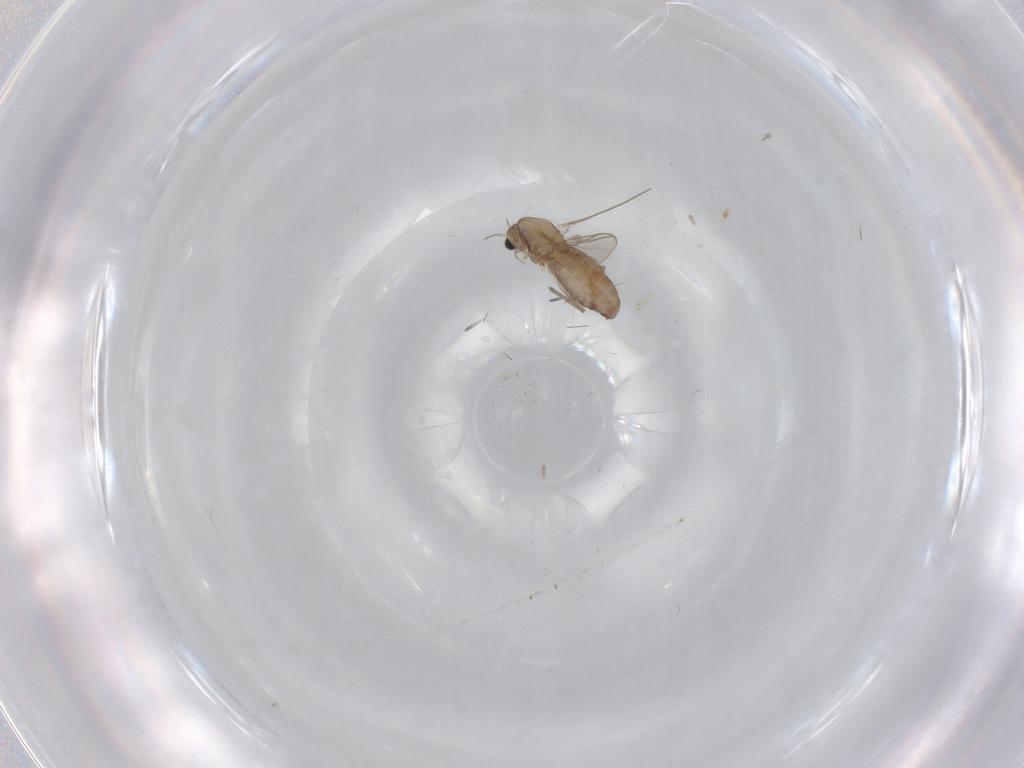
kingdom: Animalia
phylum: Arthropoda
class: Insecta
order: Diptera
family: Chironomidae
